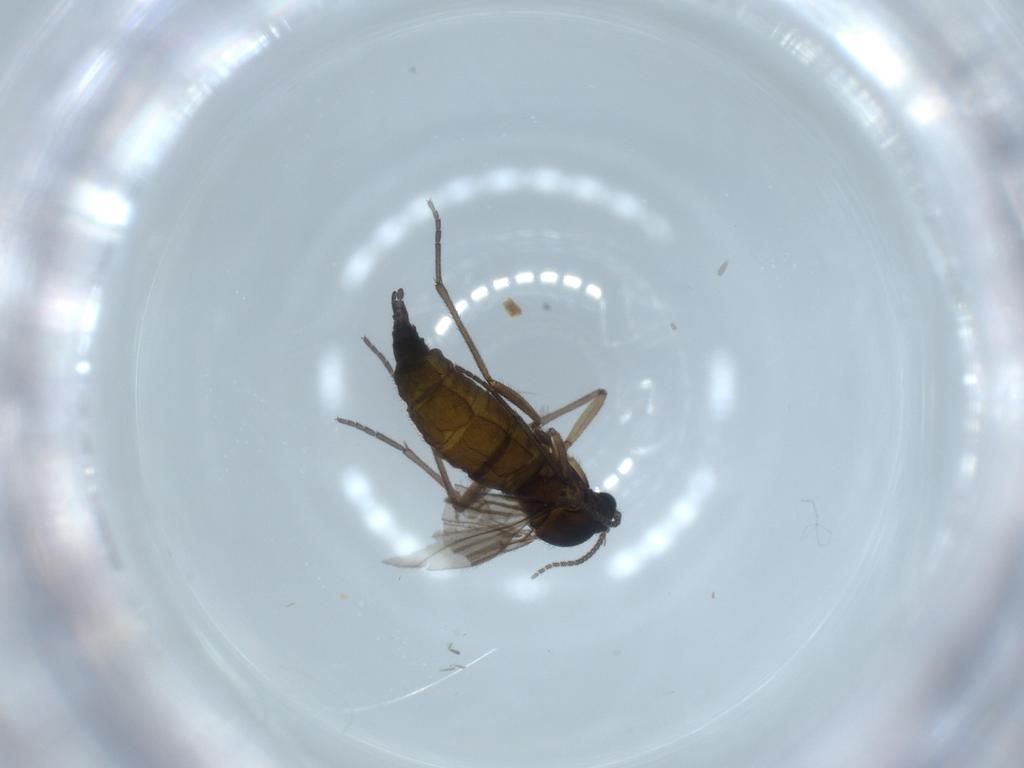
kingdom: Animalia
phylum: Arthropoda
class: Insecta
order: Diptera
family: Sciaridae
